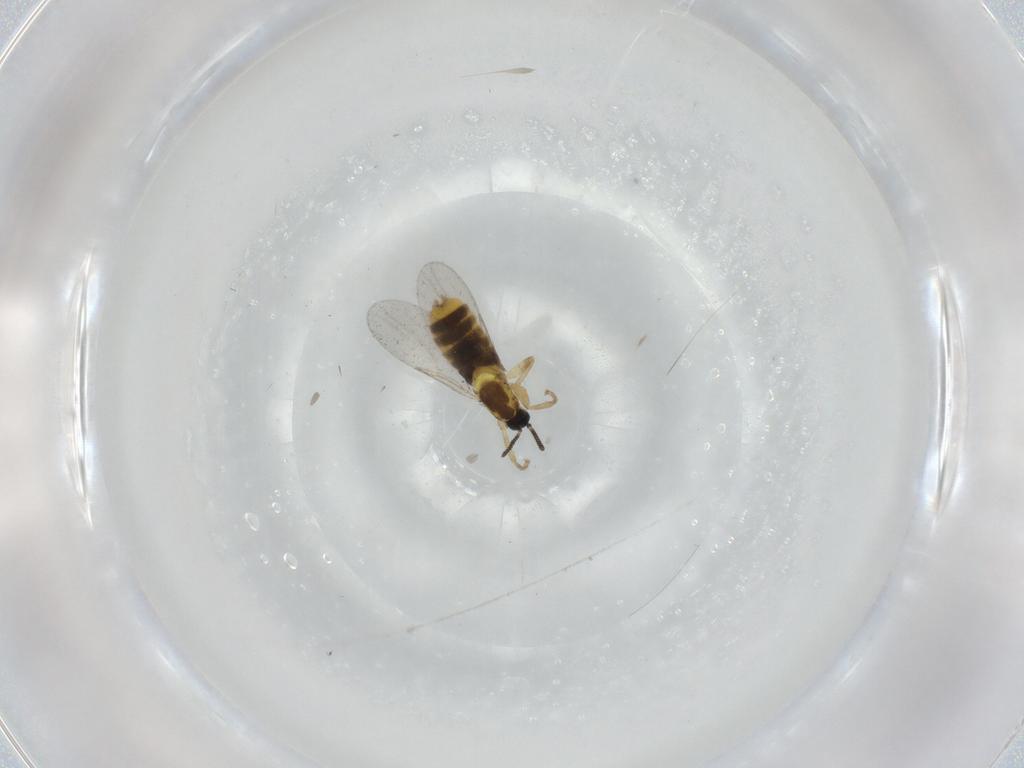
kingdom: Animalia
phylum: Arthropoda
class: Insecta
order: Diptera
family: Scatopsidae
